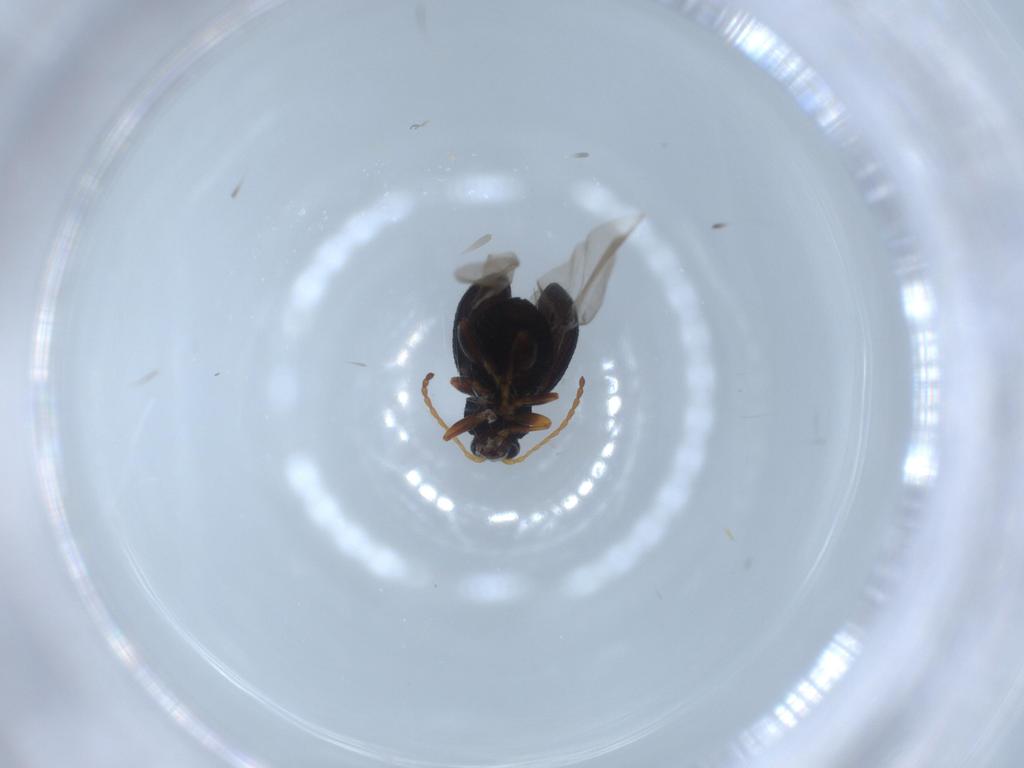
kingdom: Animalia
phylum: Arthropoda
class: Insecta
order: Coleoptera
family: Chrysomelidae
